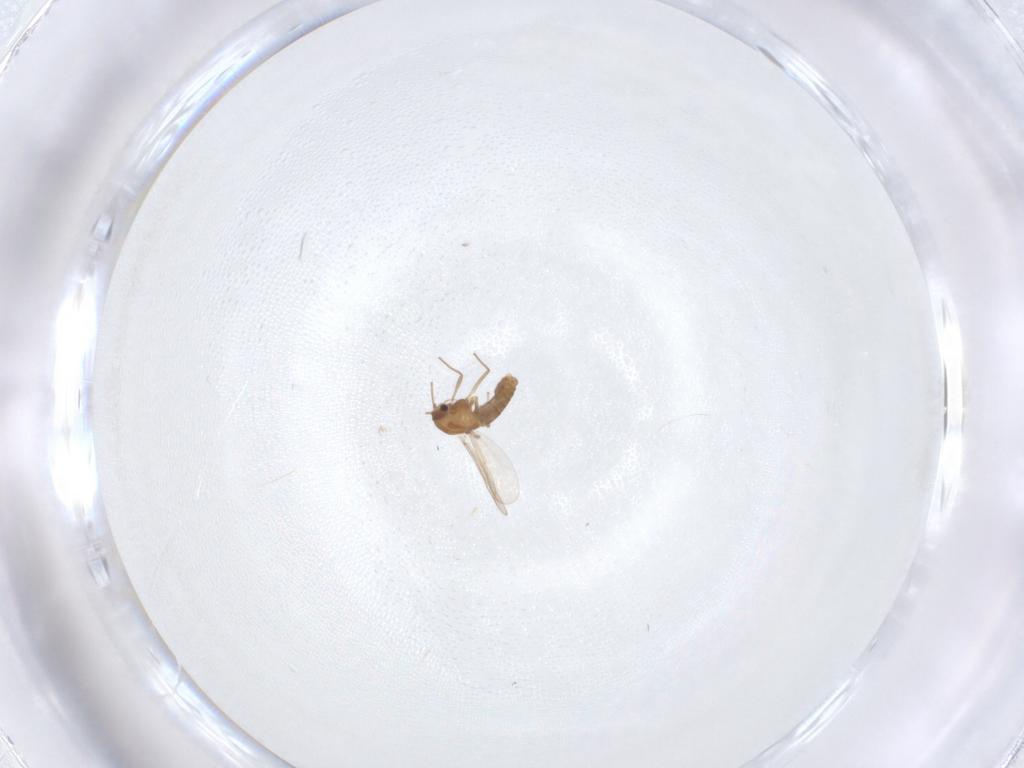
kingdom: Animalia
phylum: Arthropoda
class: Insecta
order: Diptera
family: Chironomidae
